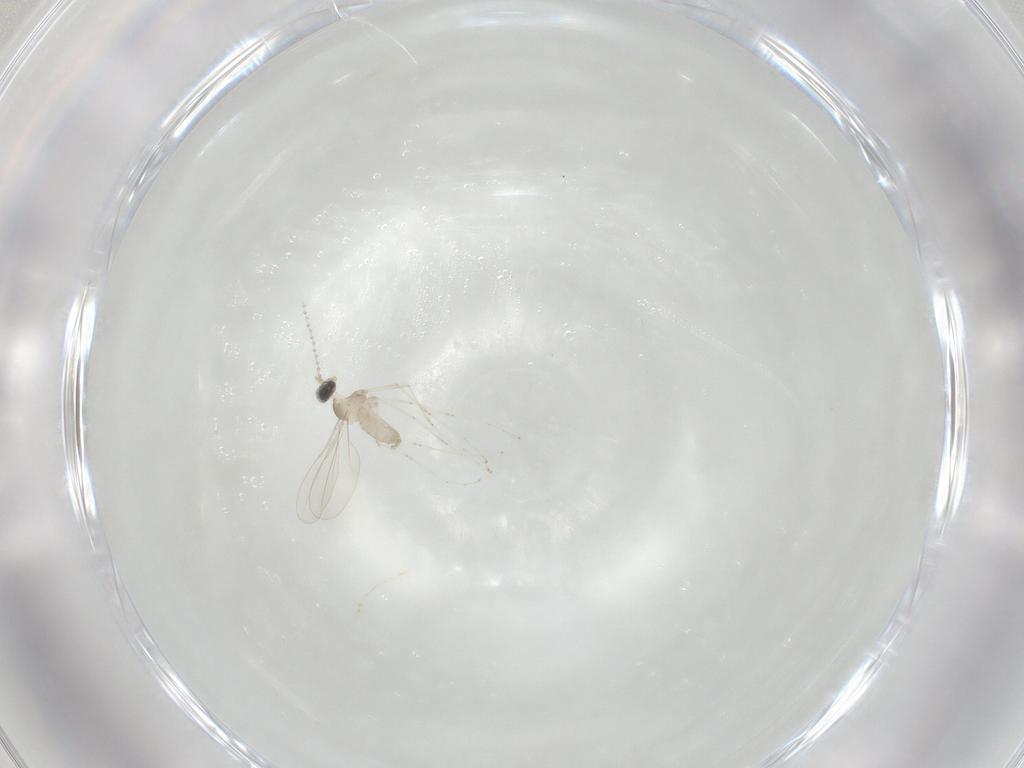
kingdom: Animalia
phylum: Arthropoda
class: Insecta
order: Diptera
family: Cecidomyiidae
